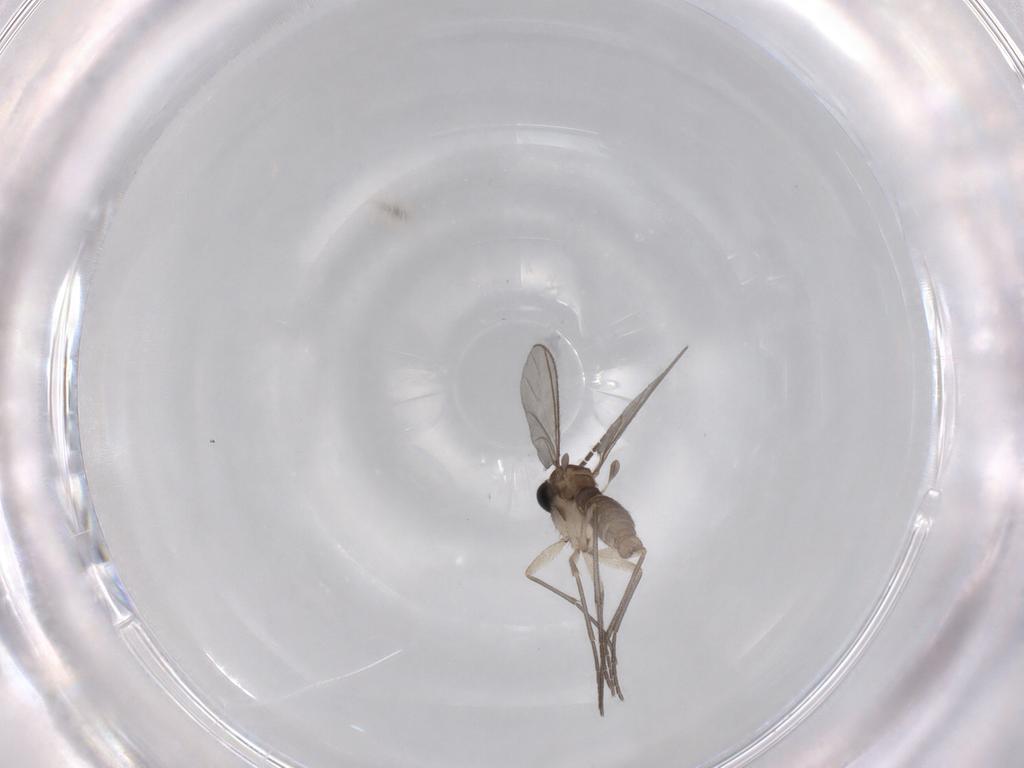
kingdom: Animalia
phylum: Arthropoda
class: Insecta
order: Diptera
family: Sciaridae
